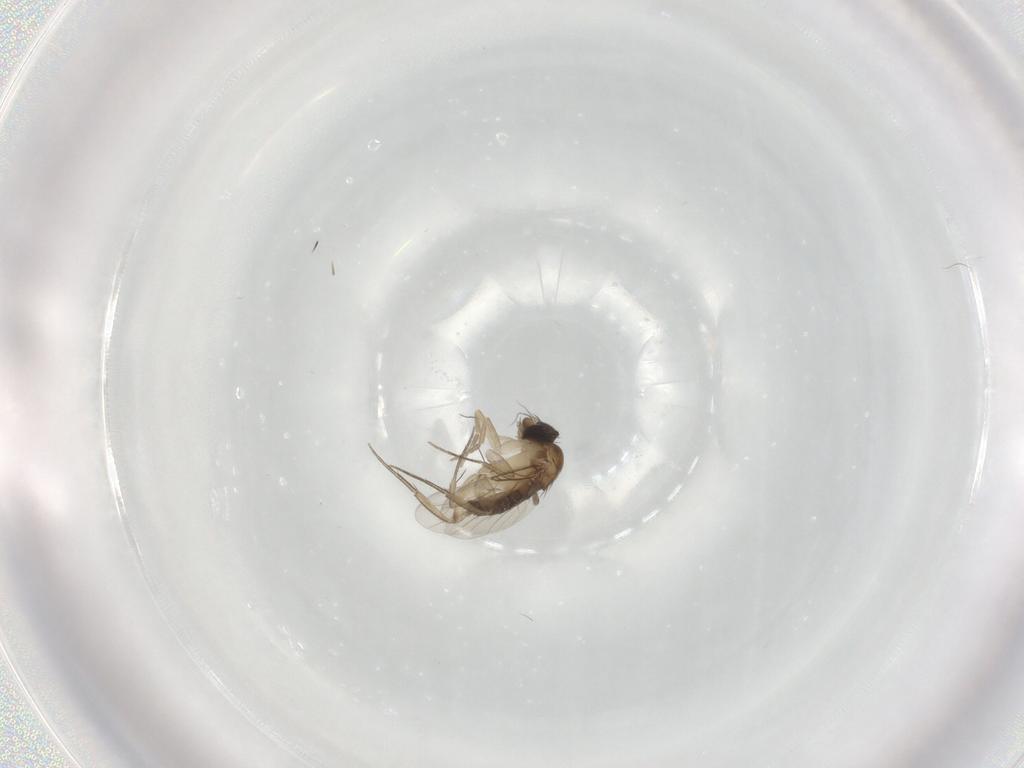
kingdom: Animalia
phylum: Arthropoda
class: Insecta
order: Diptera
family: Phoridae
